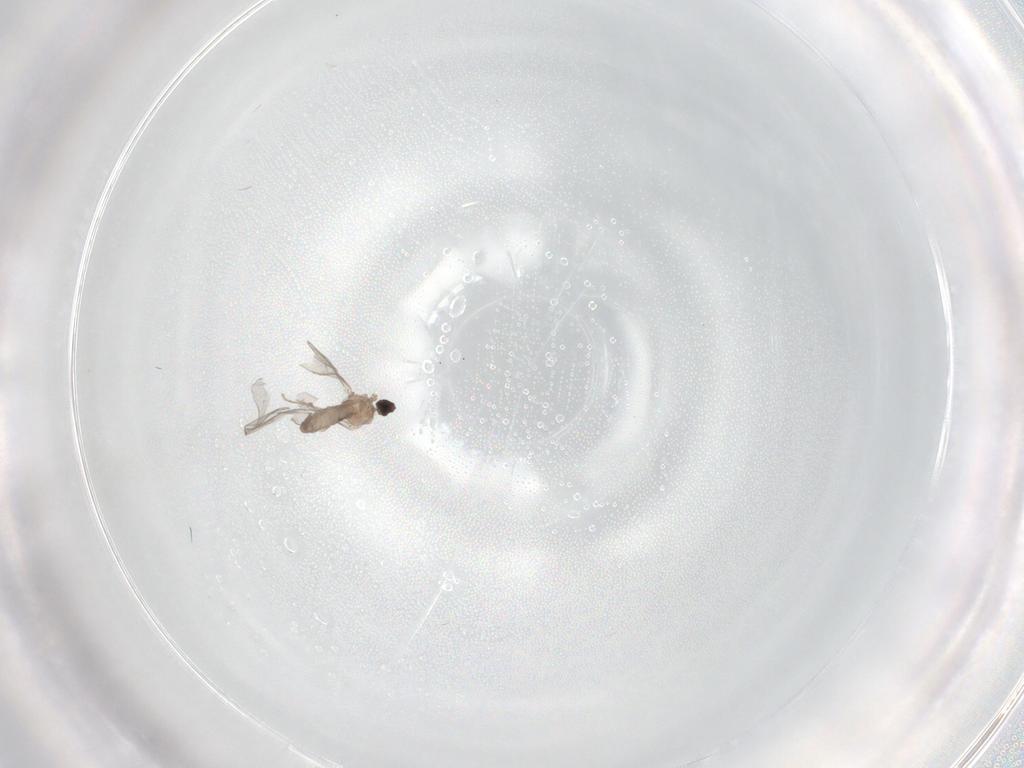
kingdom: Animalia
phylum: Arthropoda
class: Insecta
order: Diptera
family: Cecidomyiidae
